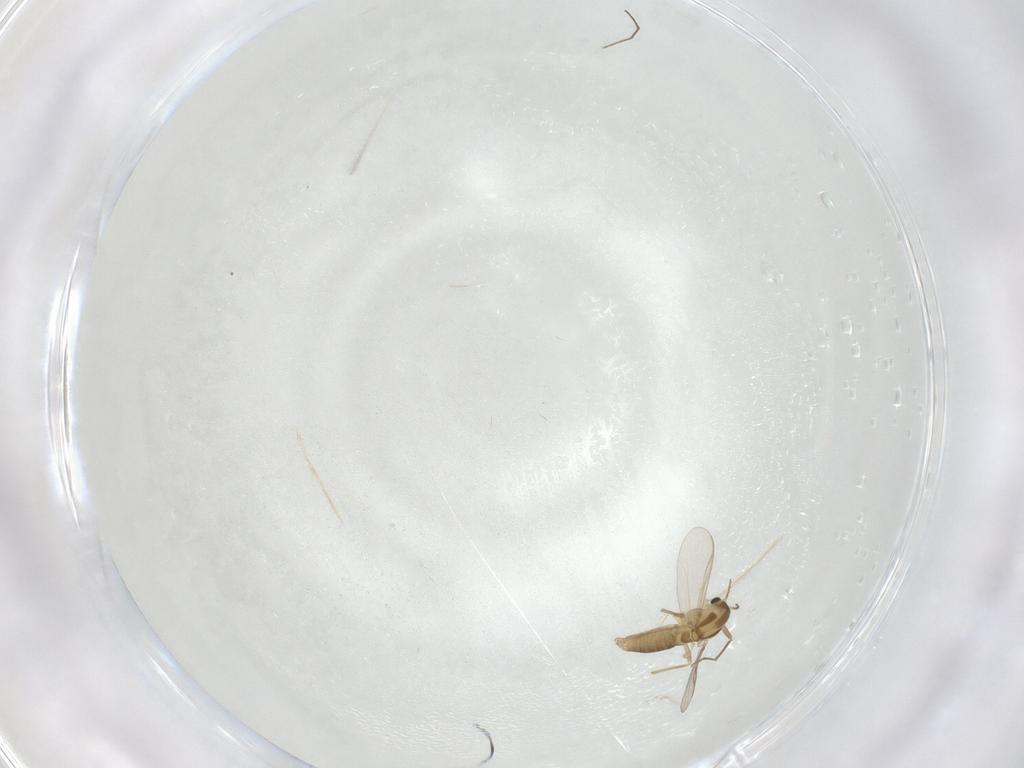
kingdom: Animalia
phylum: Arthropoda
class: Insecta
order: Diptera
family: Chironomidae
